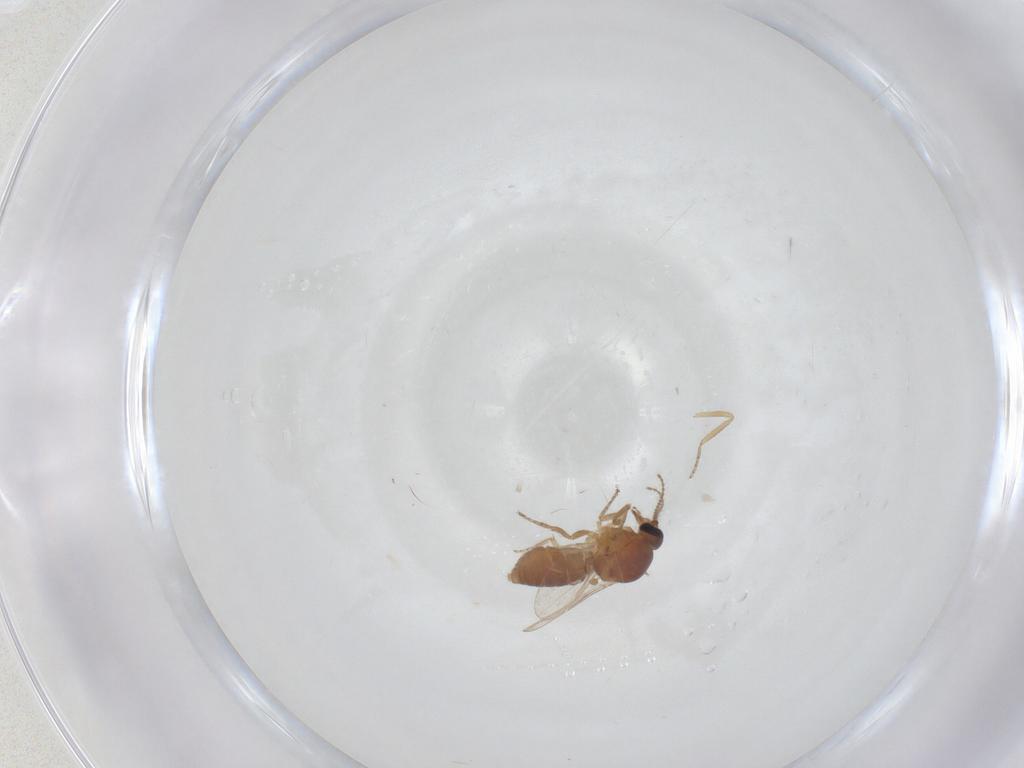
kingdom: Animalia
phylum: Arthropoda
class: Insecta
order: Diptera
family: Ceratopogonidae
